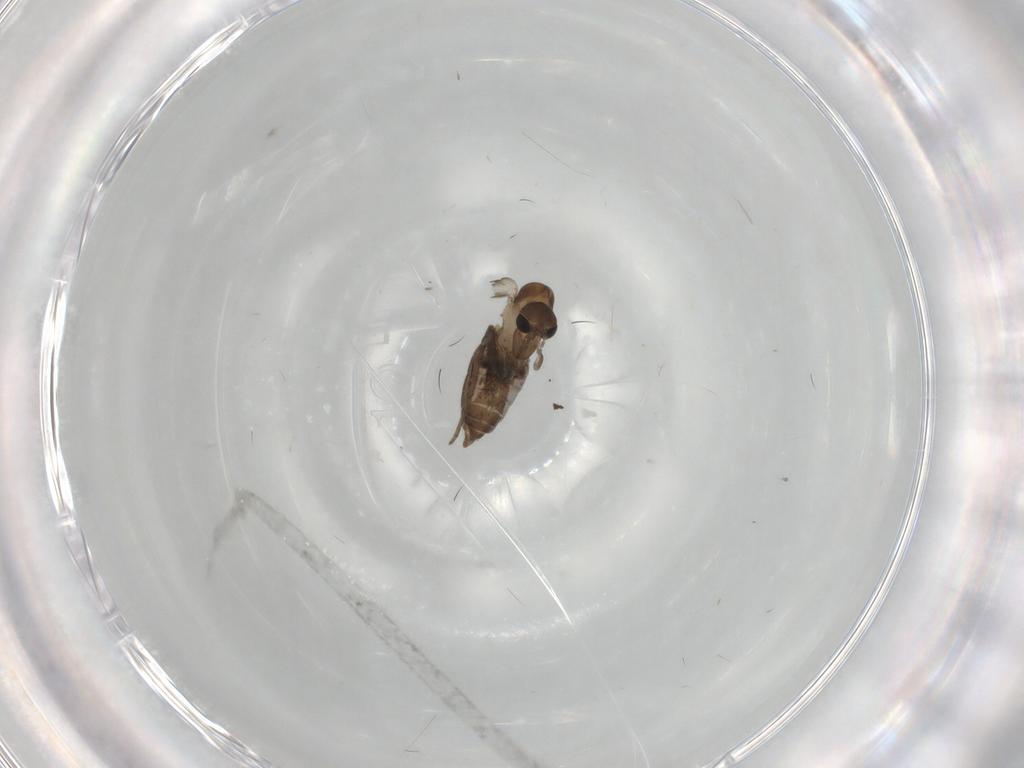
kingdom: Animalia
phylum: Arthropoda
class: Insecta
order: Diptera
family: Psychodidae
